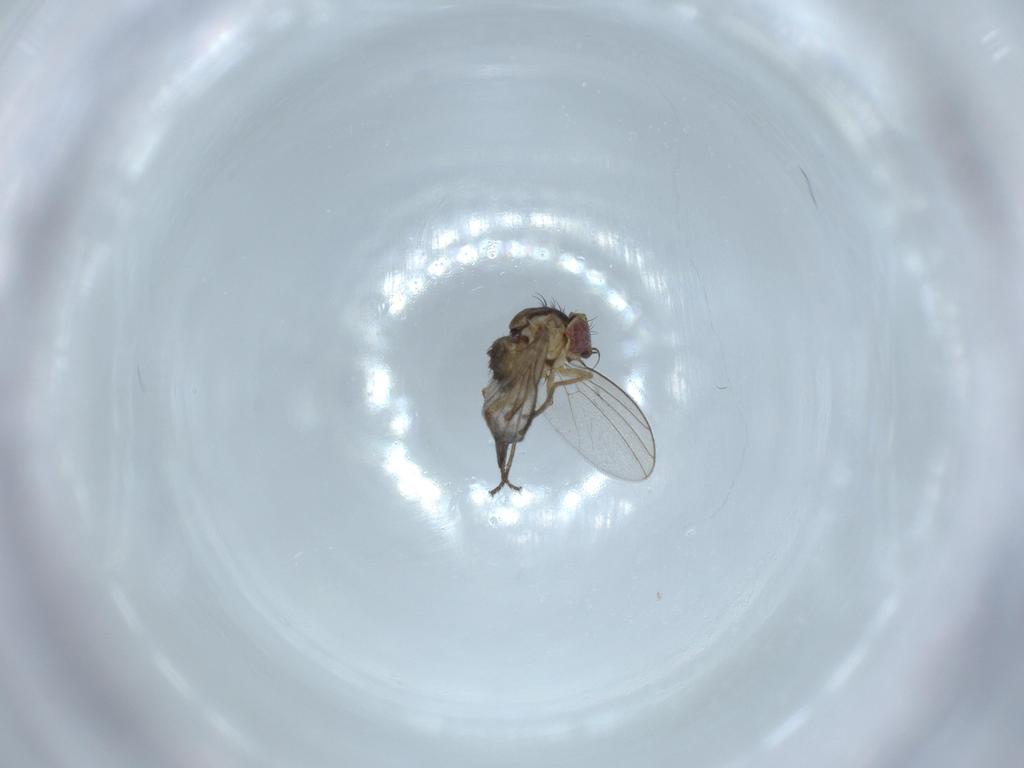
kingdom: Animalia
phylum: Arthropoda
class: Insecta
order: Diptera
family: Agromyzidae
